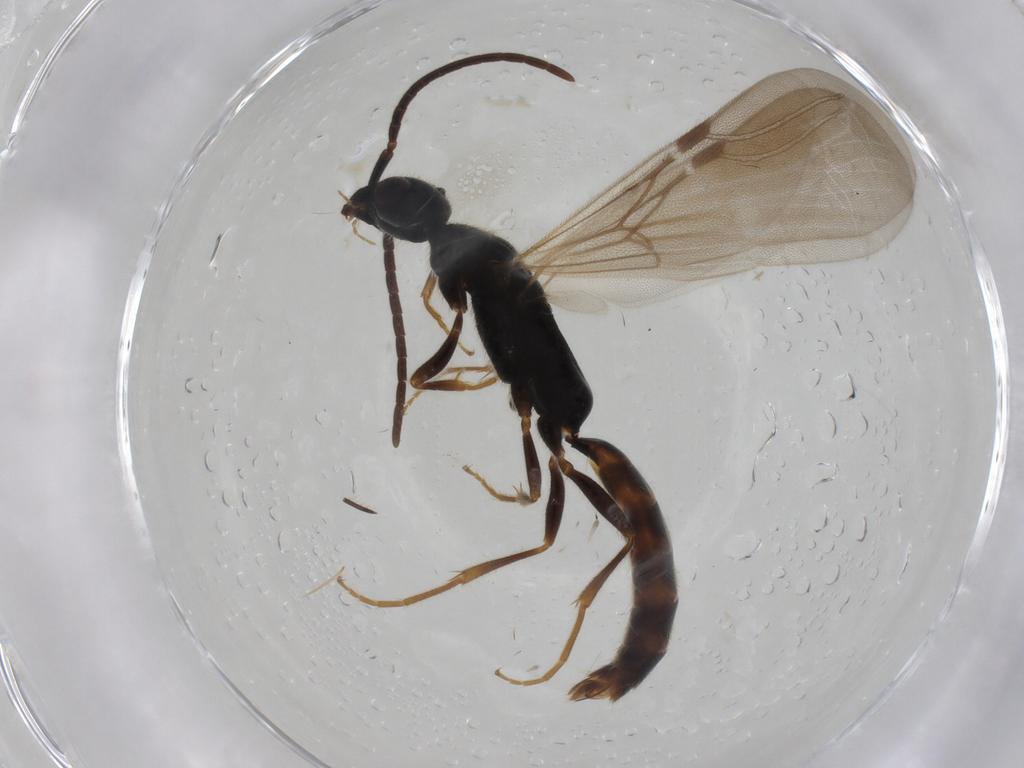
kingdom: Animalia
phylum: Arthropoda
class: Insecta
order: Hymenoptera
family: Bethylidae
